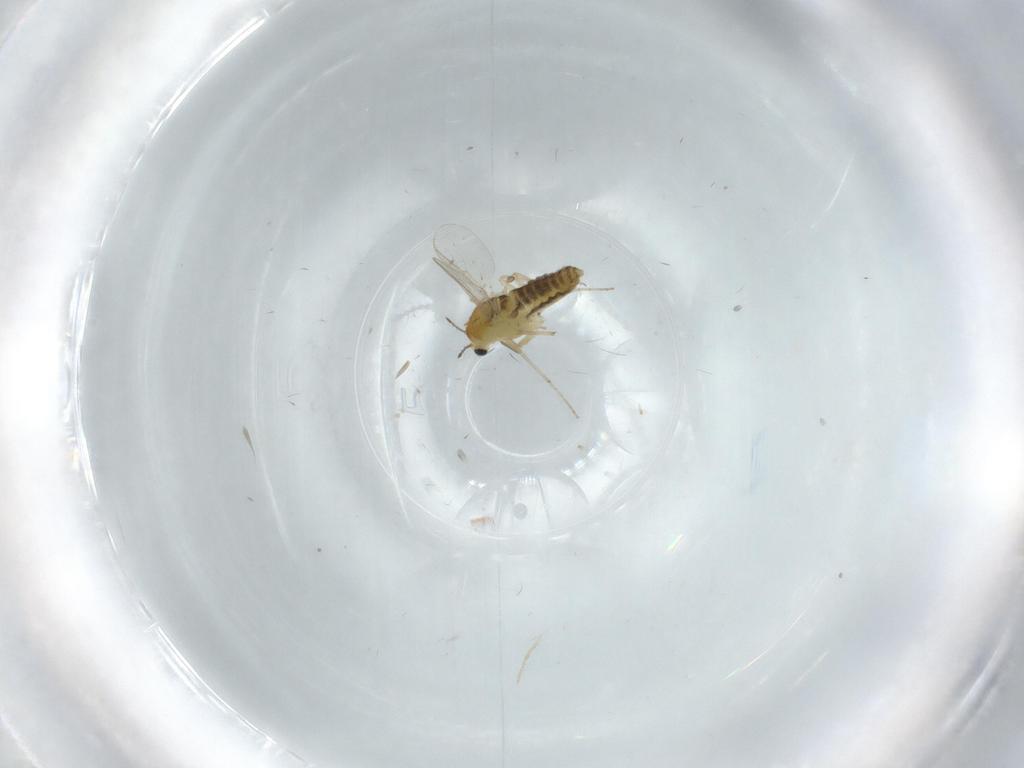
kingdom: Animalia
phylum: Arthropoda
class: Insecta
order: Diptera
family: Chironomidae
